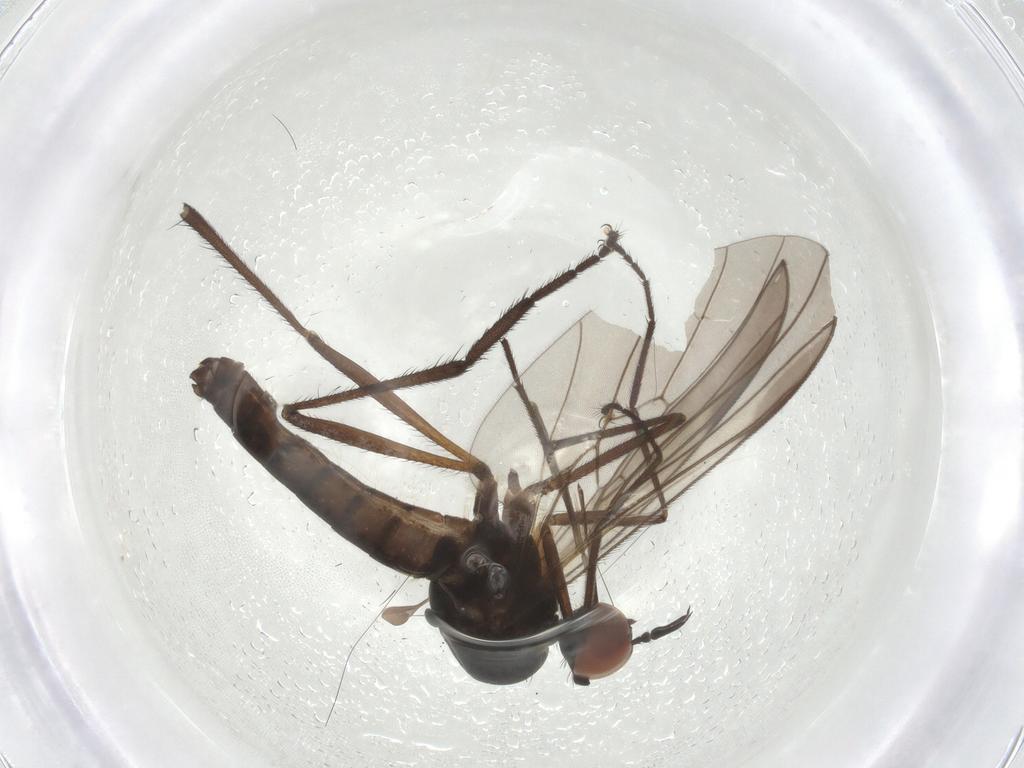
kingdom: Animalia
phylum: Arthropoda
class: Insecta
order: Diptera
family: Empididae
